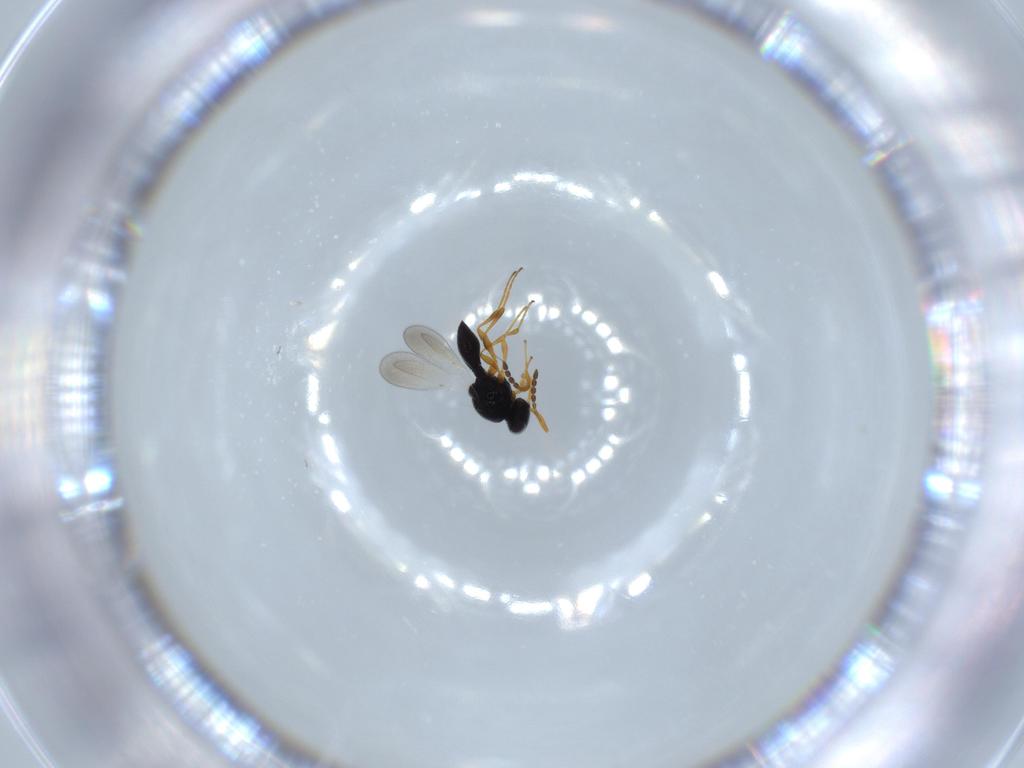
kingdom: Animalia
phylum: Arthropoda
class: Insecta
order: Hymenoptera
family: Platygastridae
